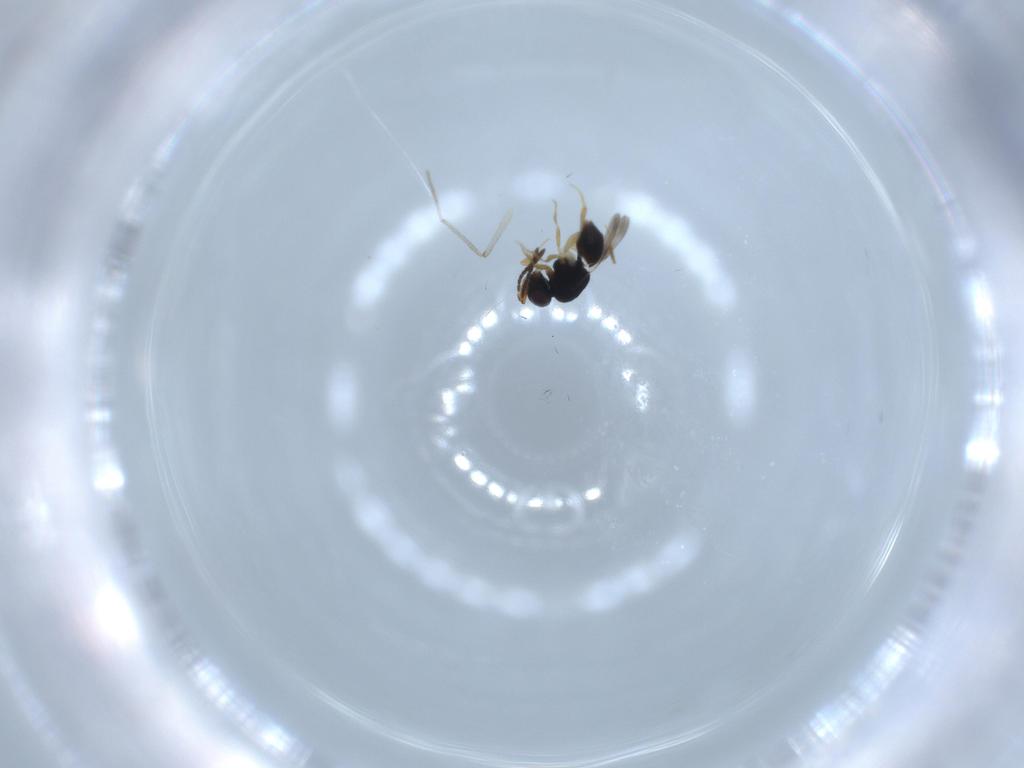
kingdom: Animalia
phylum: Arthropoda
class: Insecta
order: Hymenoptera
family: Ceraphronidae
